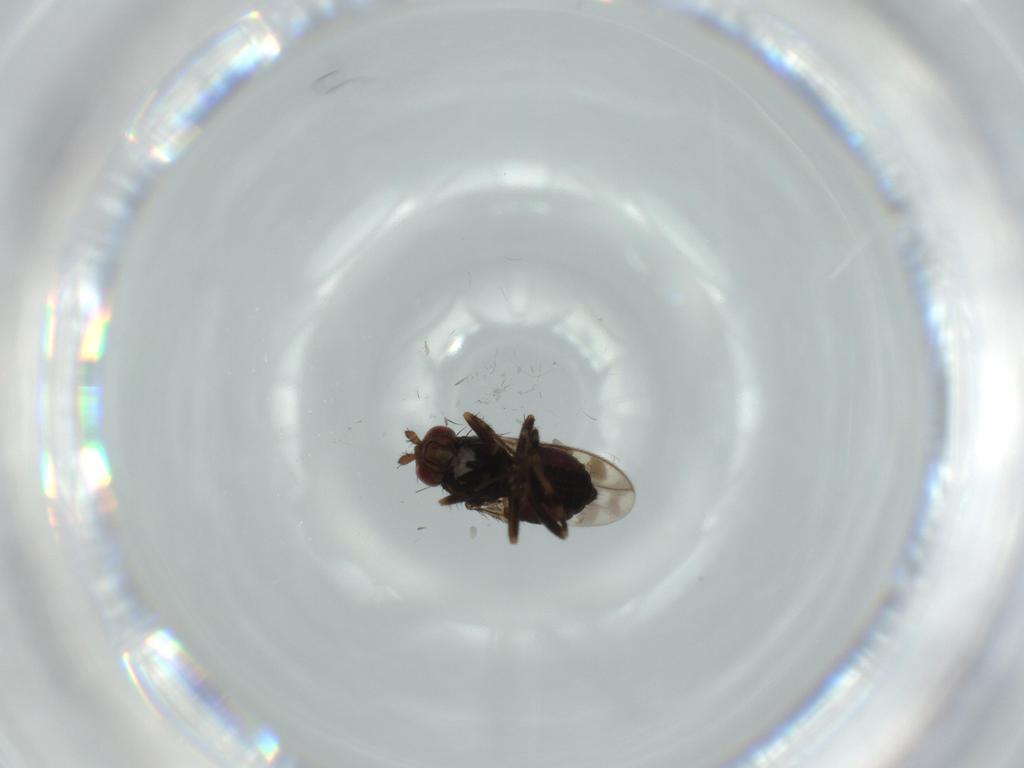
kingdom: Animalia
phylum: Arthropoda
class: Insecta
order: Diptera
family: Sphaeroceridae
